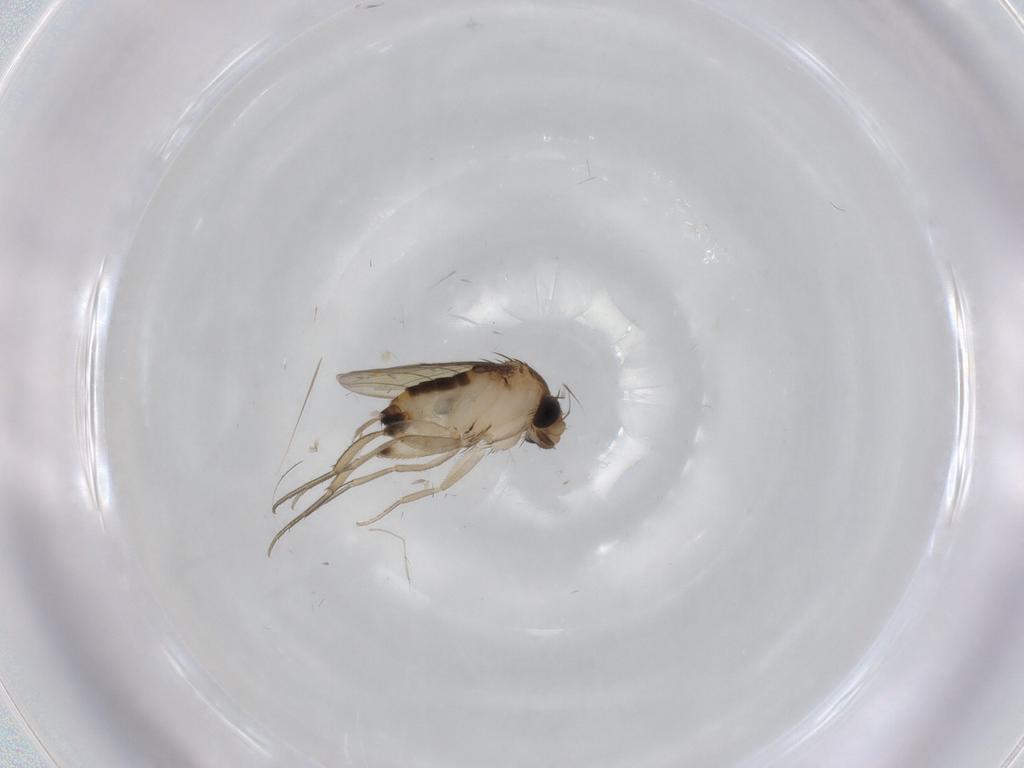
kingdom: Animalia
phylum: Arthropoda
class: Insecta
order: Diptera
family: Phoridae
